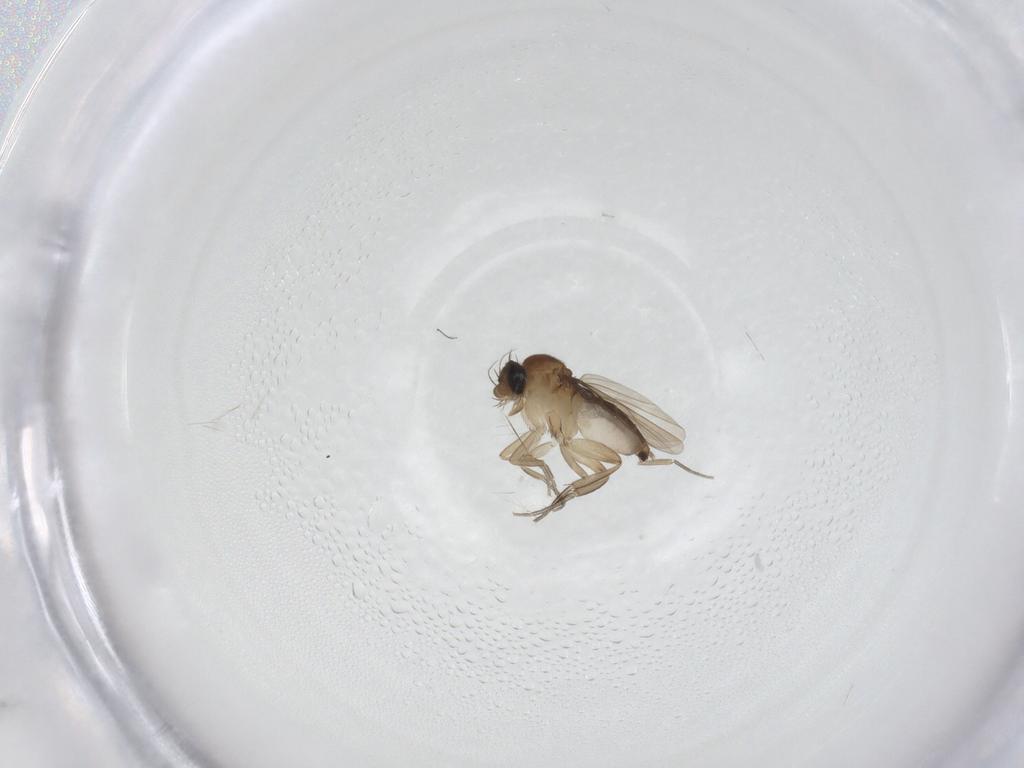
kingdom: Animalia
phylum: Arthropoda
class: Insecta
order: Diptera
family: Cecidomyiidae
